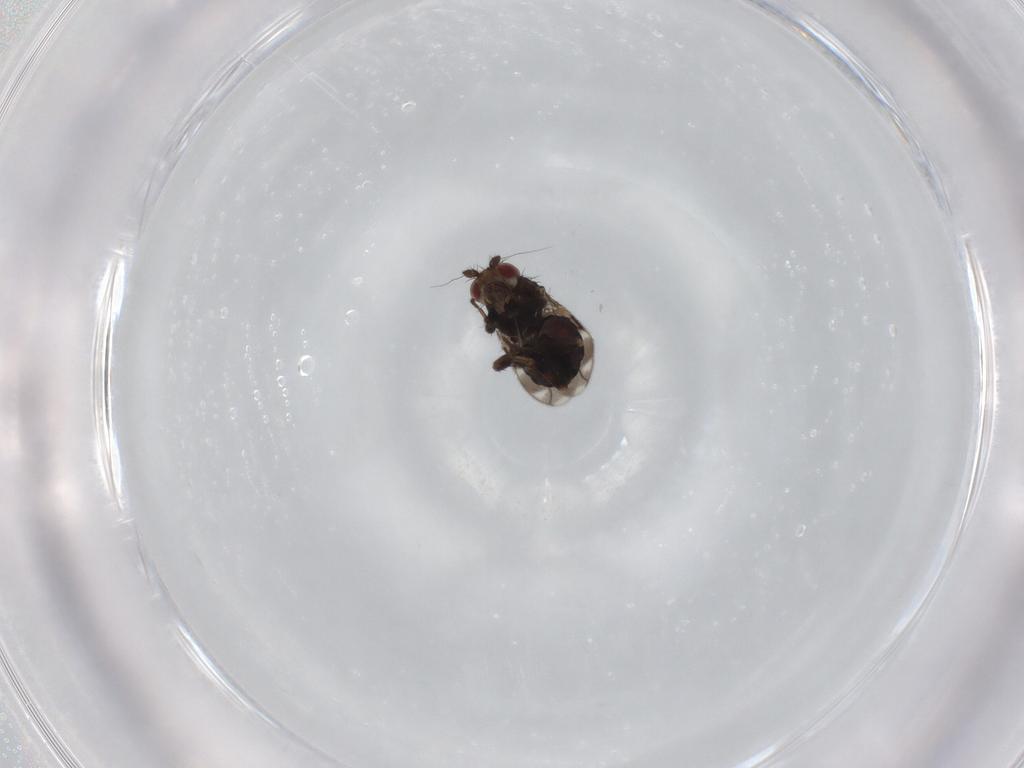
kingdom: Animalia
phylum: Arthropoda
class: Insecta
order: Diptera
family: Sphaeroceridae
